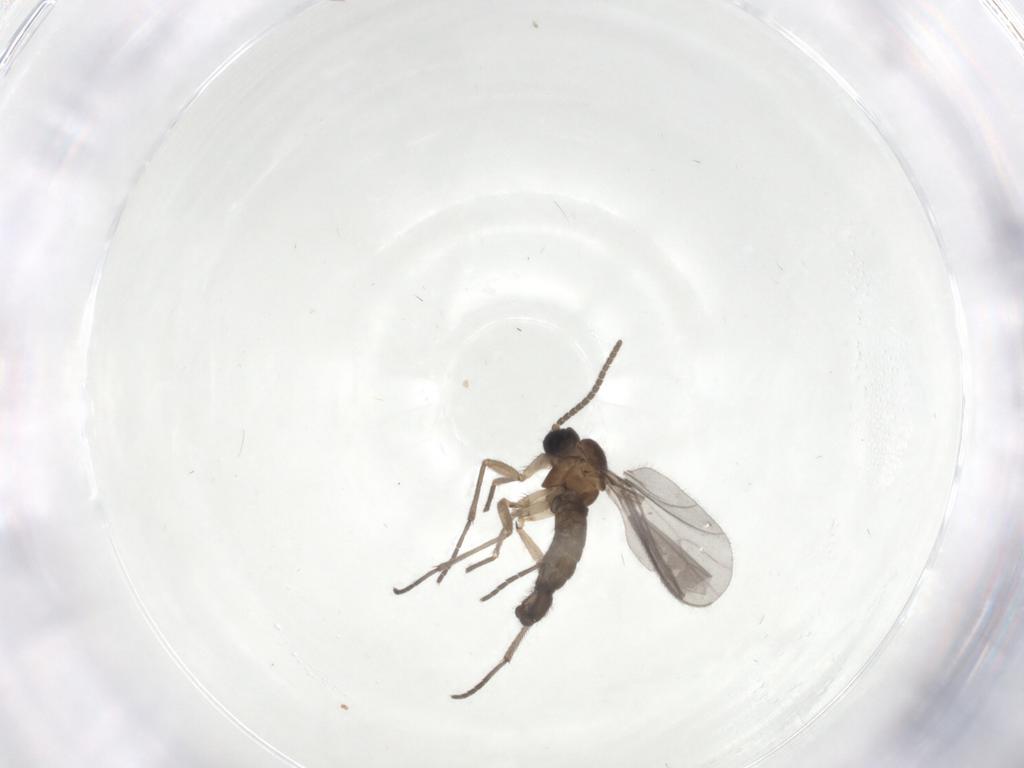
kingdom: Animalia
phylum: Arthropoda
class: Insecta
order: Diptera
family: Sciaridae
